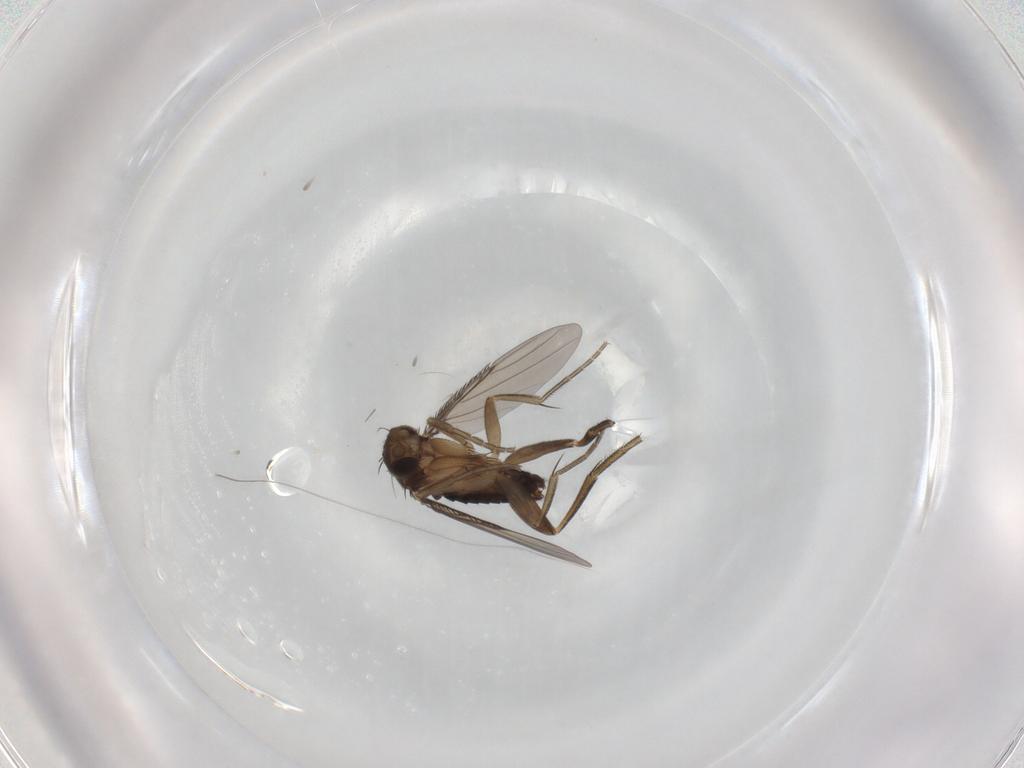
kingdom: Animalia
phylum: Arthropoda
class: Insecta
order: Diptera
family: Phoridae
